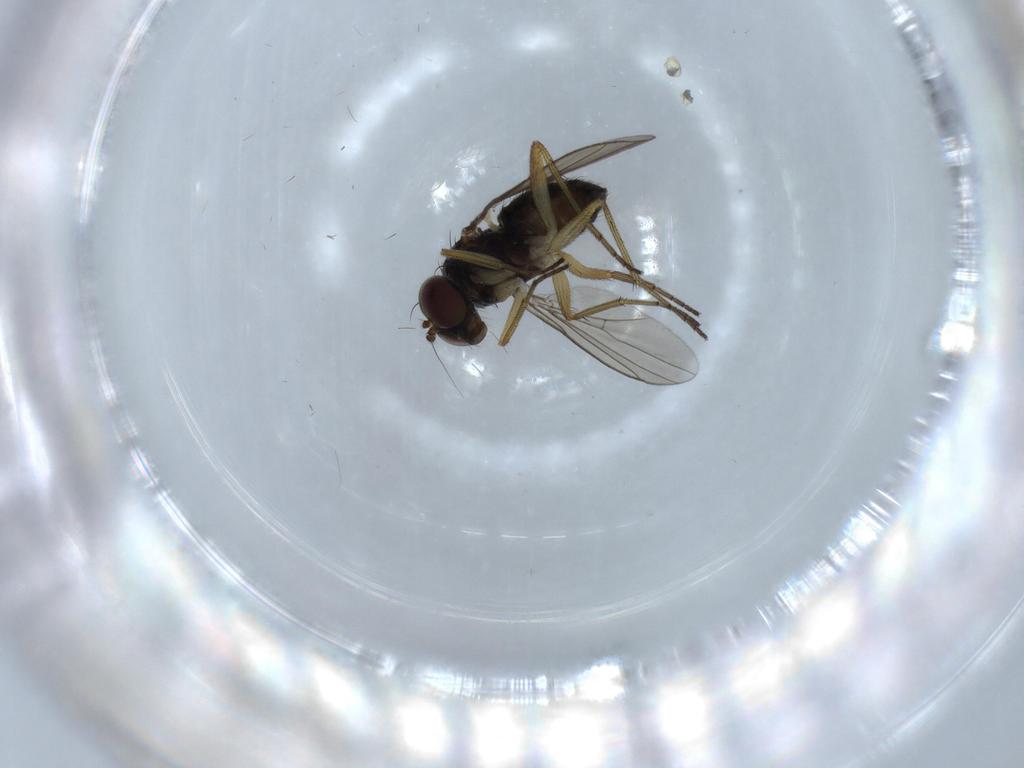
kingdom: Animalia
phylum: Arthropoda
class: Insecta
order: Diptera
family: Dolichopodidae
